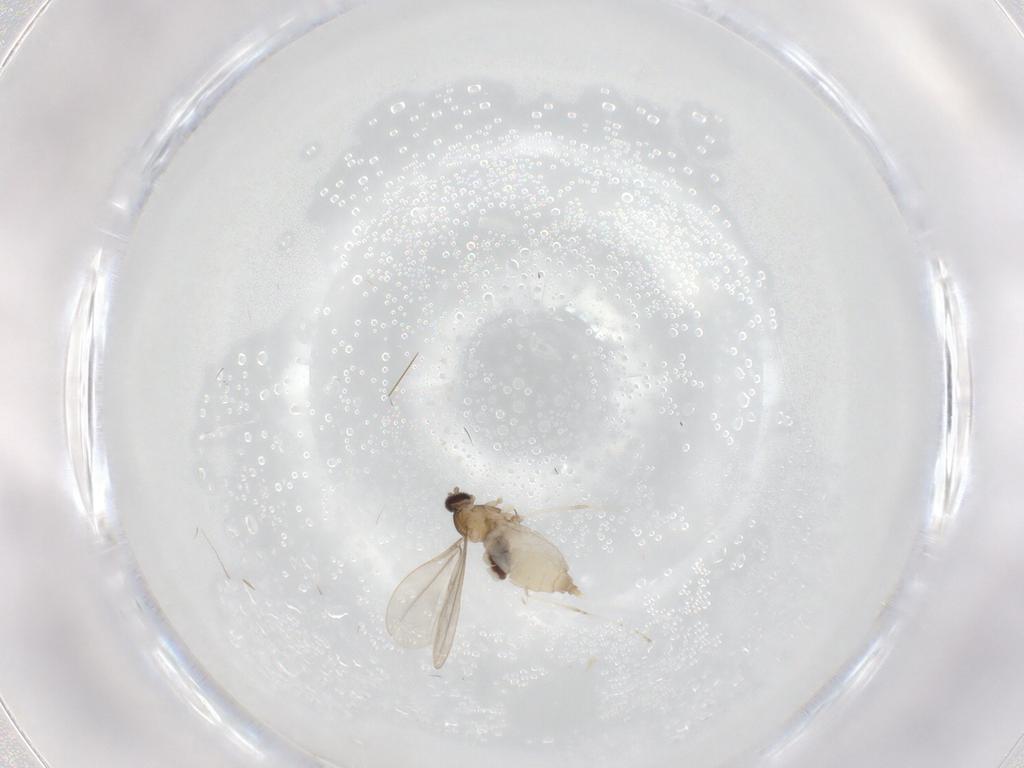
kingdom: Animalia
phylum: Arthropoda
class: Insecta
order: Diptera
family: Cecidomyiidae
